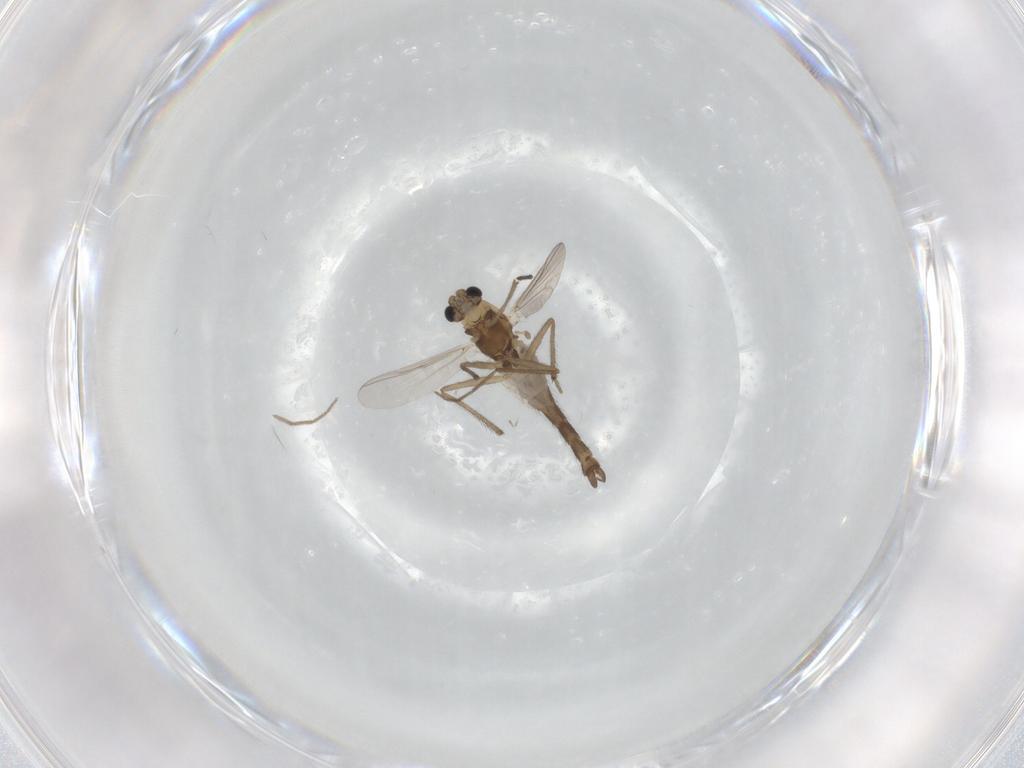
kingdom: Animalia
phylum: Arthropoda
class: Insecta
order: Diptera
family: Chironomidae
